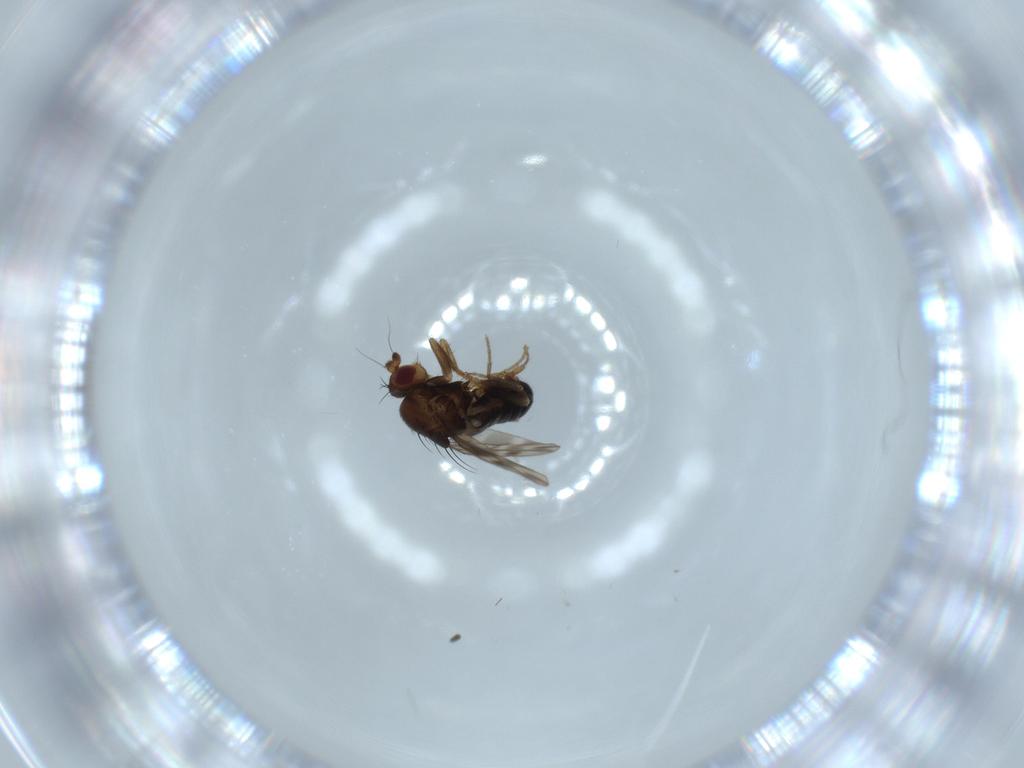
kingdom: Animalia
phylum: Arthropoda
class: Insecta
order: Diptera
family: Sphaeroceridae
